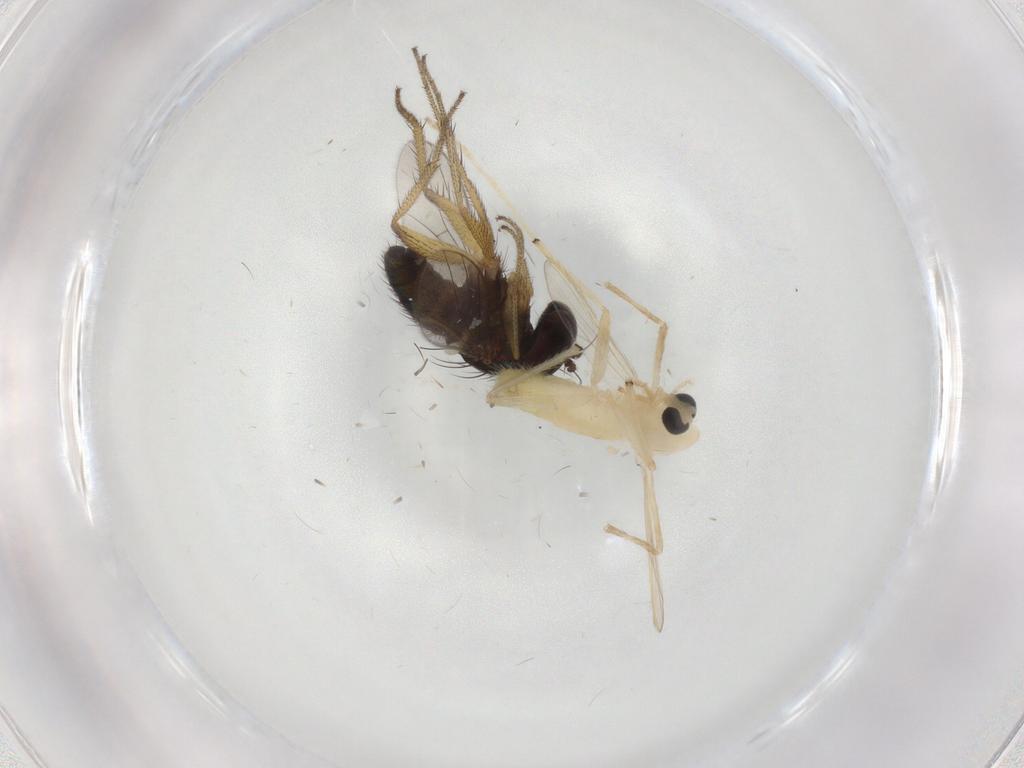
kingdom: Animalia
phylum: Arthropoda
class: Insecta
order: Diptera
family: Chironomidae
